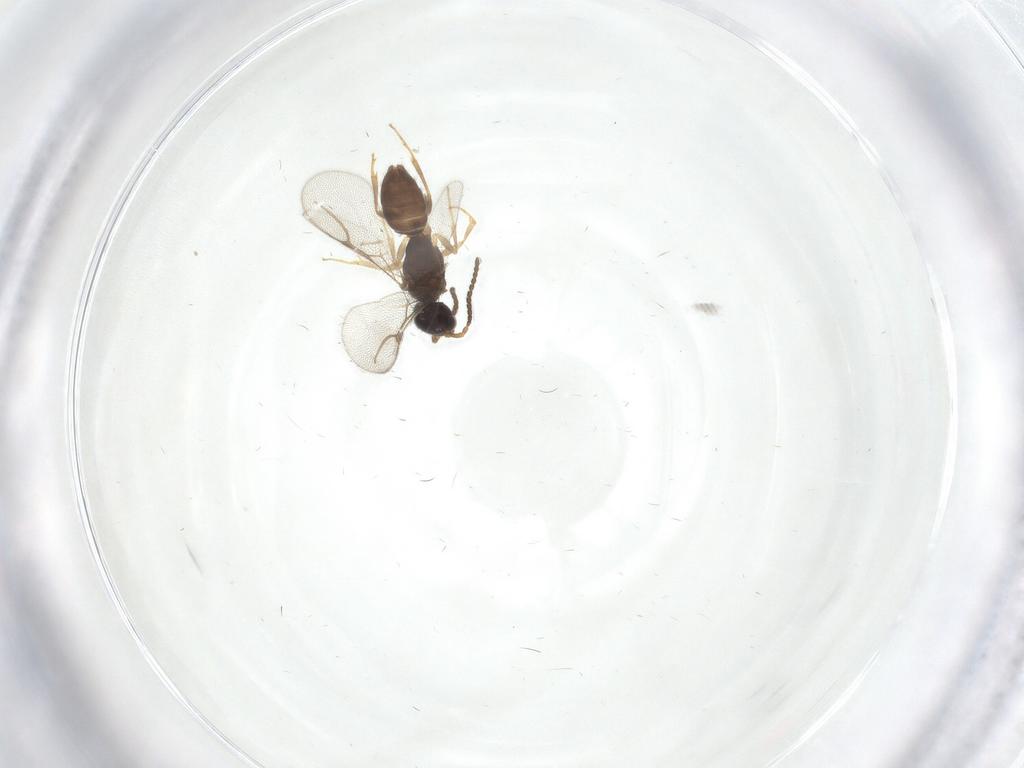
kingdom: Animalia
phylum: Arthropoda
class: Insecta
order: Hymenoptera
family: Bethylidae
